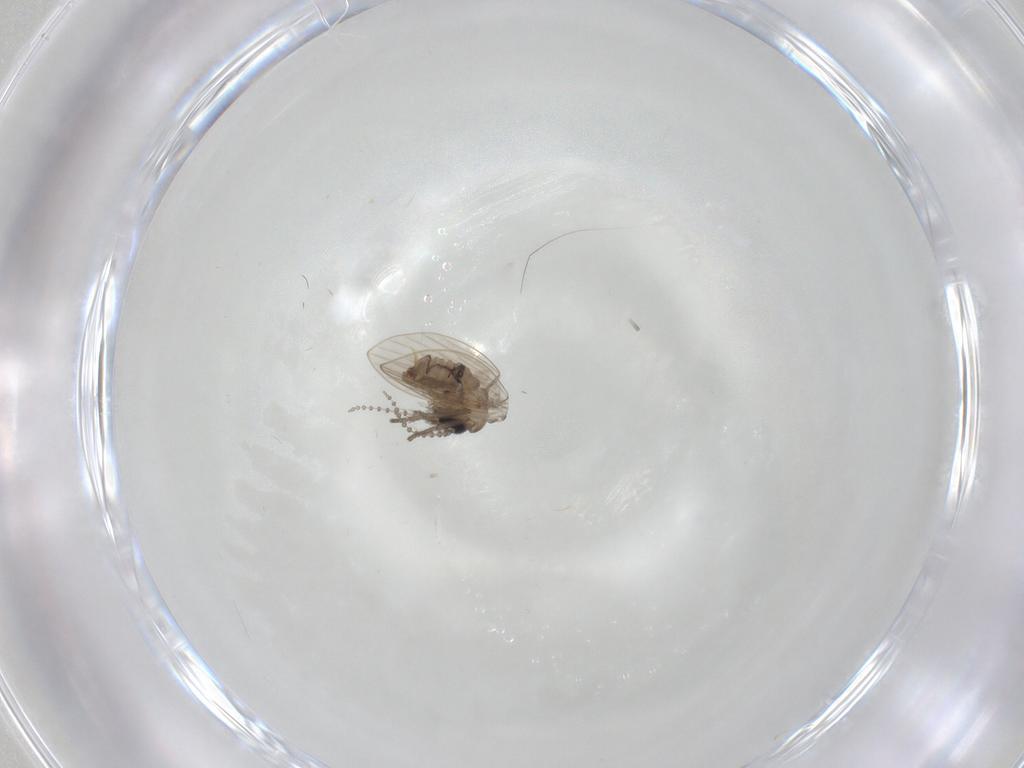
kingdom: Animalia
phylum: Arthropoda
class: Insecta
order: Diptera
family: Psychodidae
